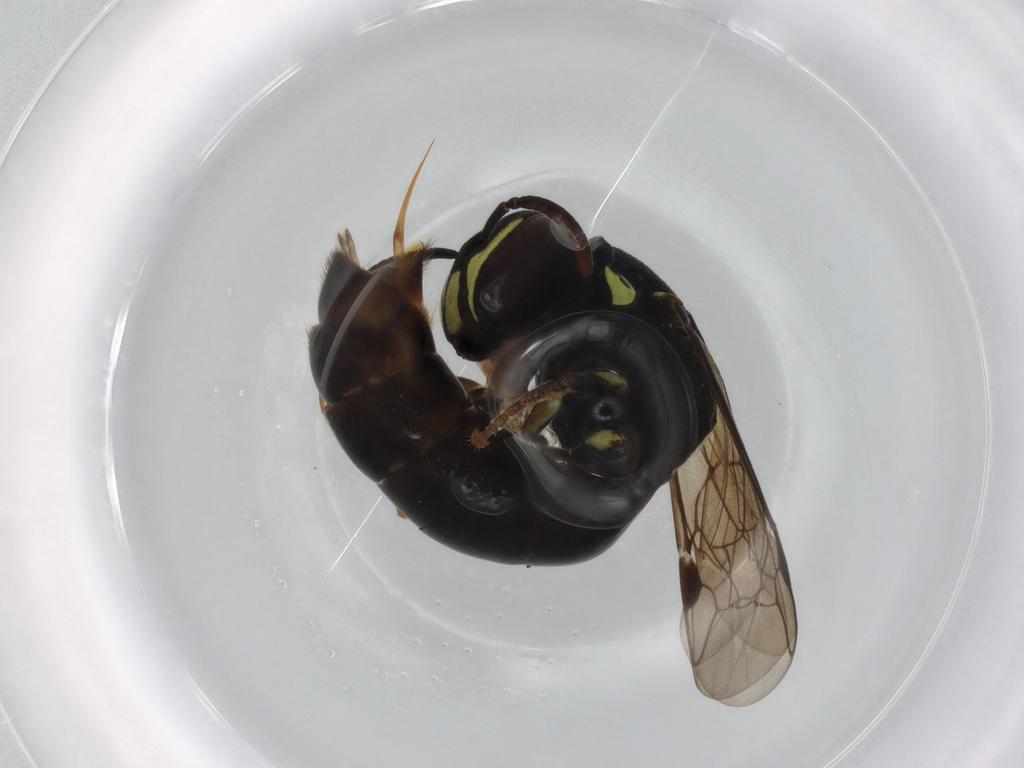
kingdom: Animalia
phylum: Arthropoda
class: Insecta
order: Hymenoptera
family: Colletidae
